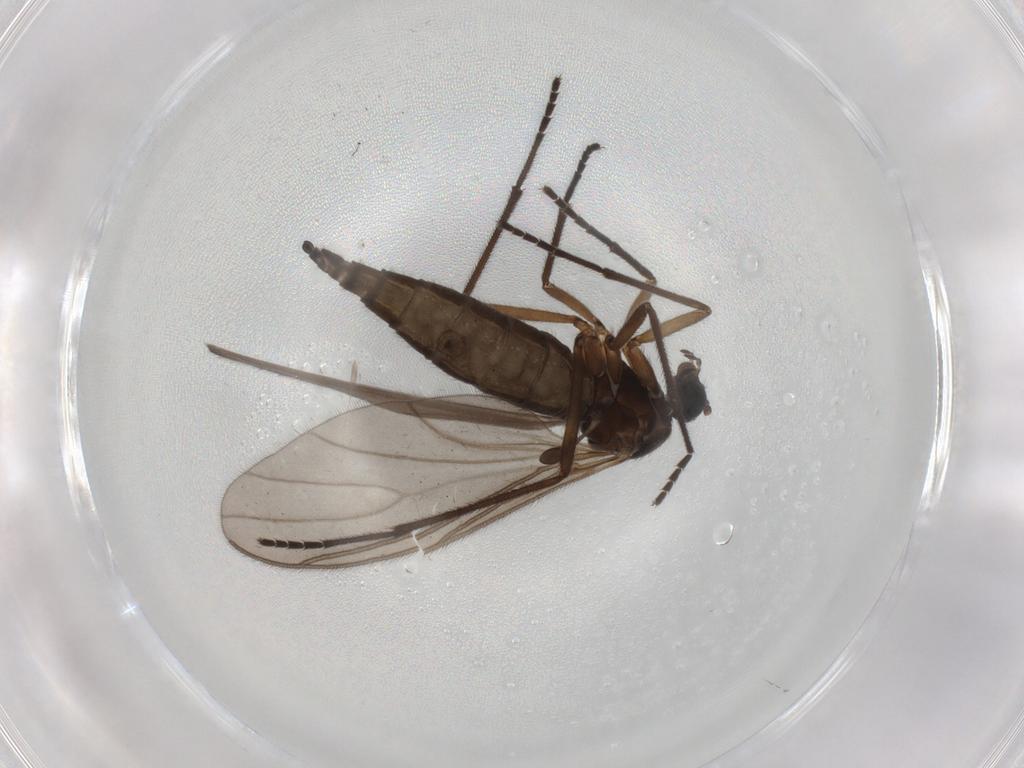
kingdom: Animalia
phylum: Arthropoda
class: Insecta
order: Diptera
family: Sciaridae
